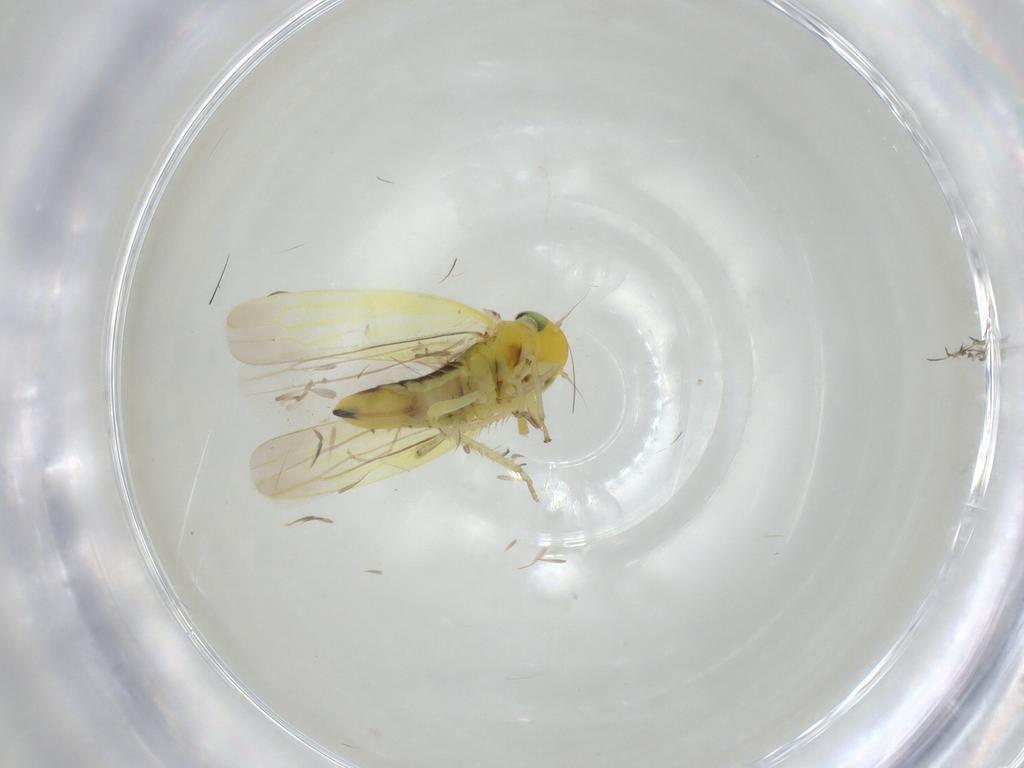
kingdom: Animalia
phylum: Arthropoda
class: Insecta
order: Hemiptera
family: Cicadellidae
